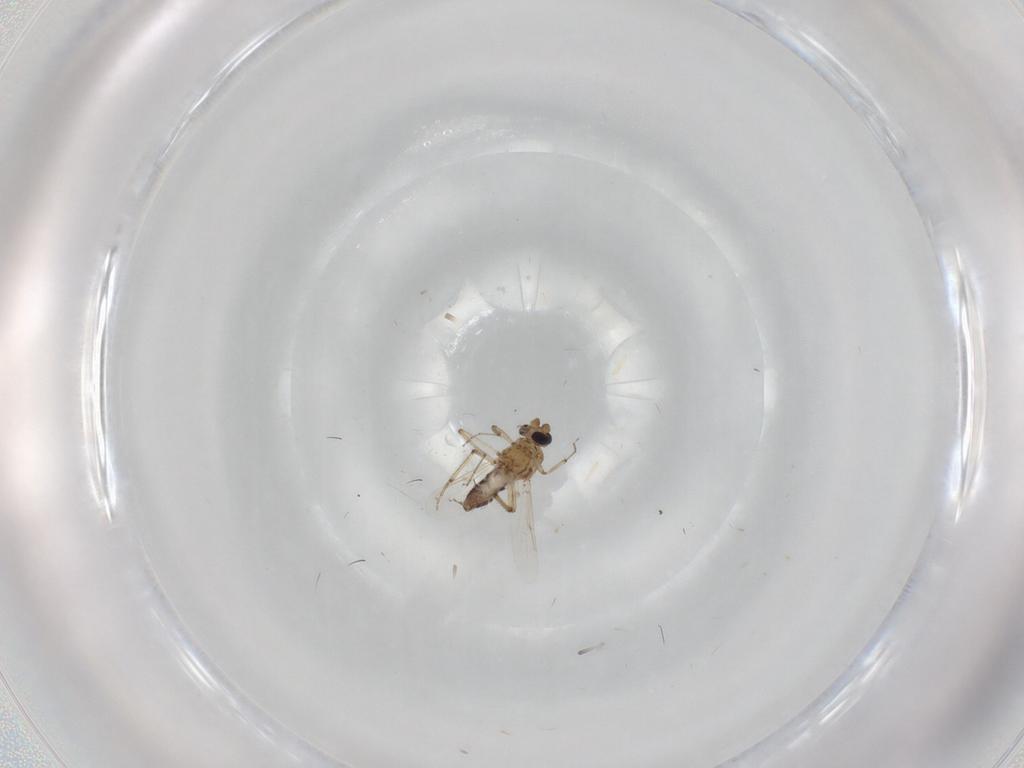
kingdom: Animalia
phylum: Arthropoda
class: Insecta
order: Diptera
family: Ceratopogonidae
